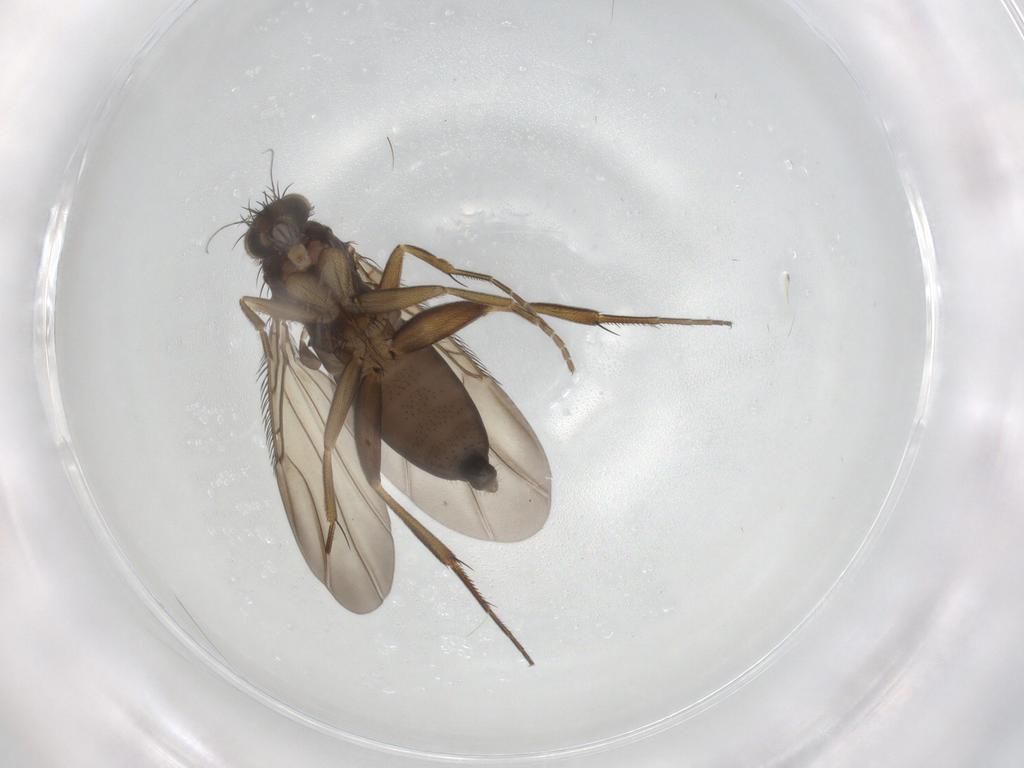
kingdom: Animalia
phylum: Arthropoda
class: Insecta
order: Diptera
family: Phoridae
